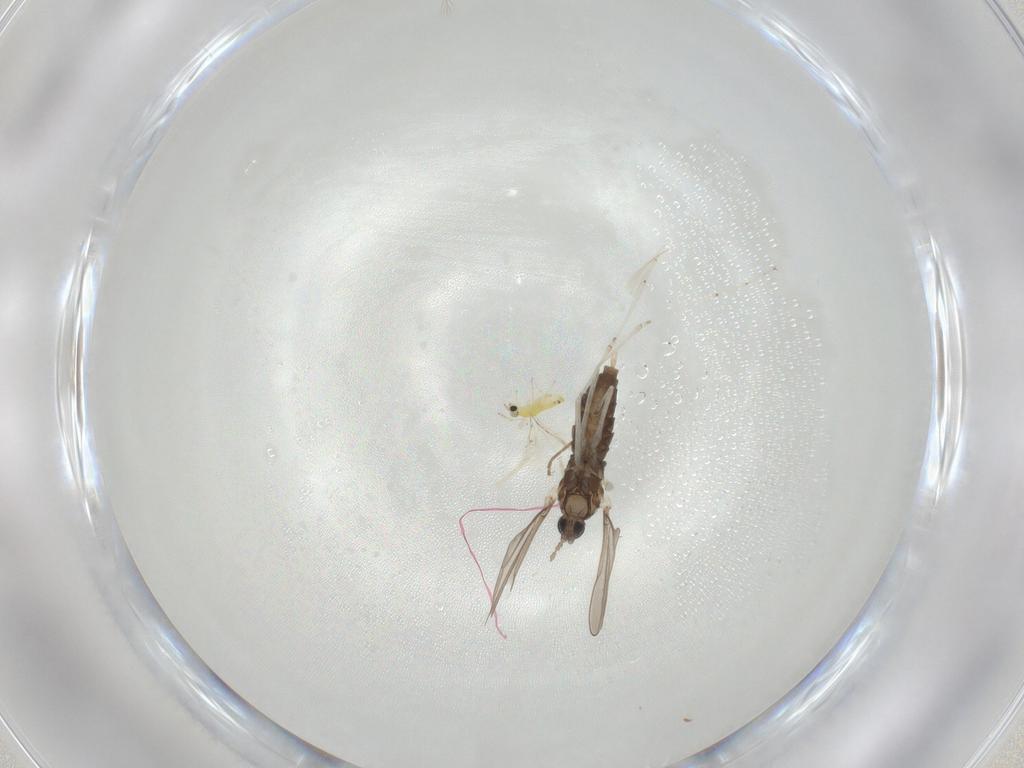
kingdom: Animalia
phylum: Arthropoda
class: Insecta
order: Diptera
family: Cecidomyiidae
